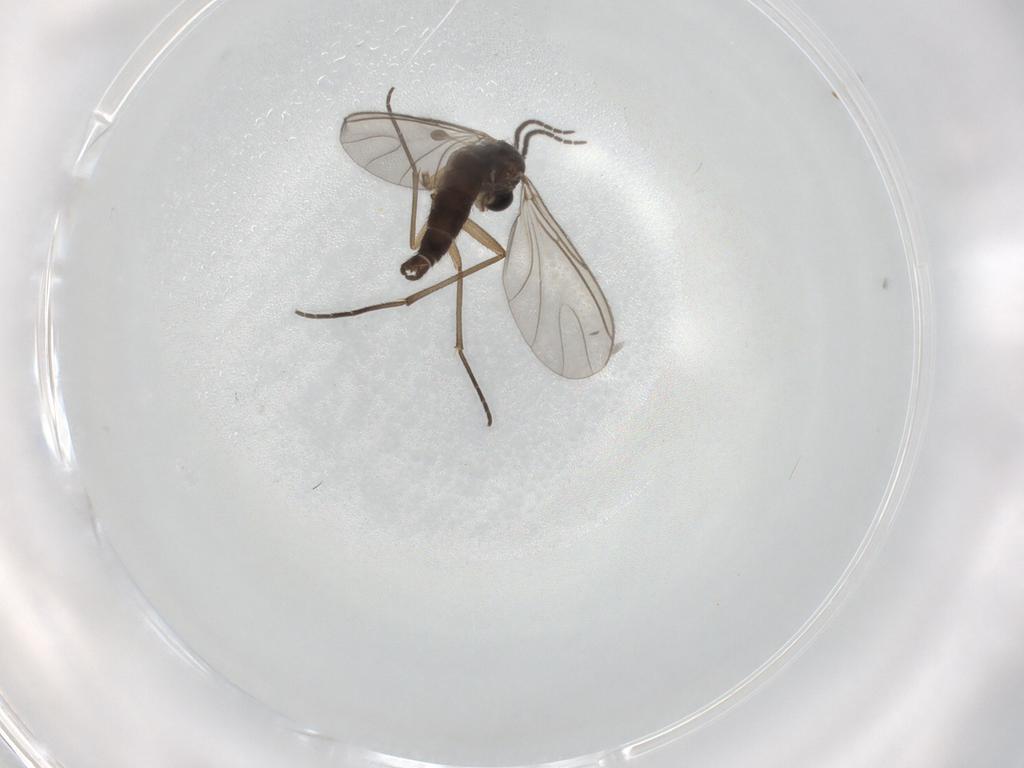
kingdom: Animalia
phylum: Arthropoda
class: Insecta
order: Diptera
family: Sciaridae
